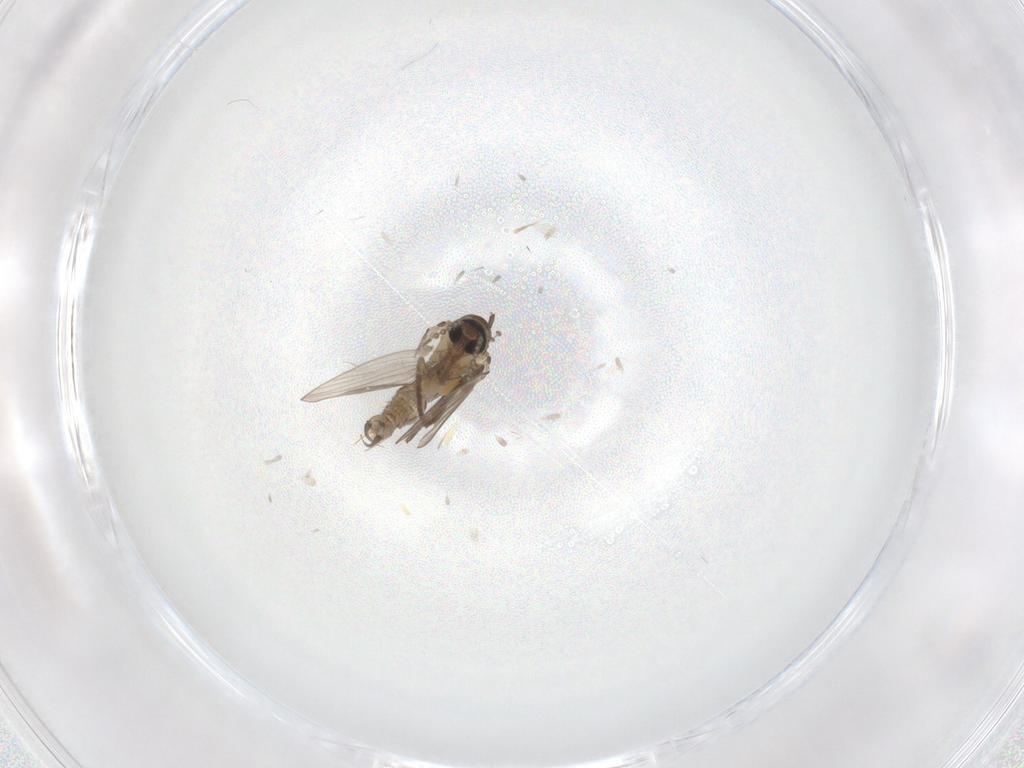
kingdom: Animalia
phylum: Arthropoda
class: Insecta
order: Diptera
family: Psychodidae
